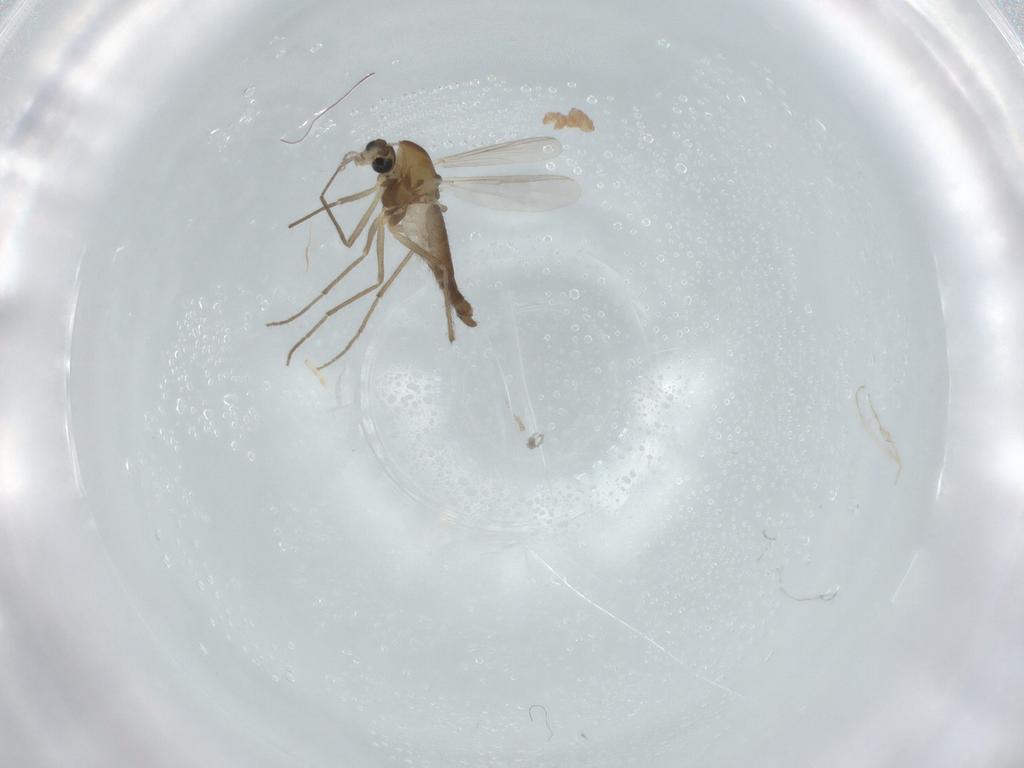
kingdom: Animalia
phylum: Arthropoda
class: Insecta
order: Diptera
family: Chironomidae
